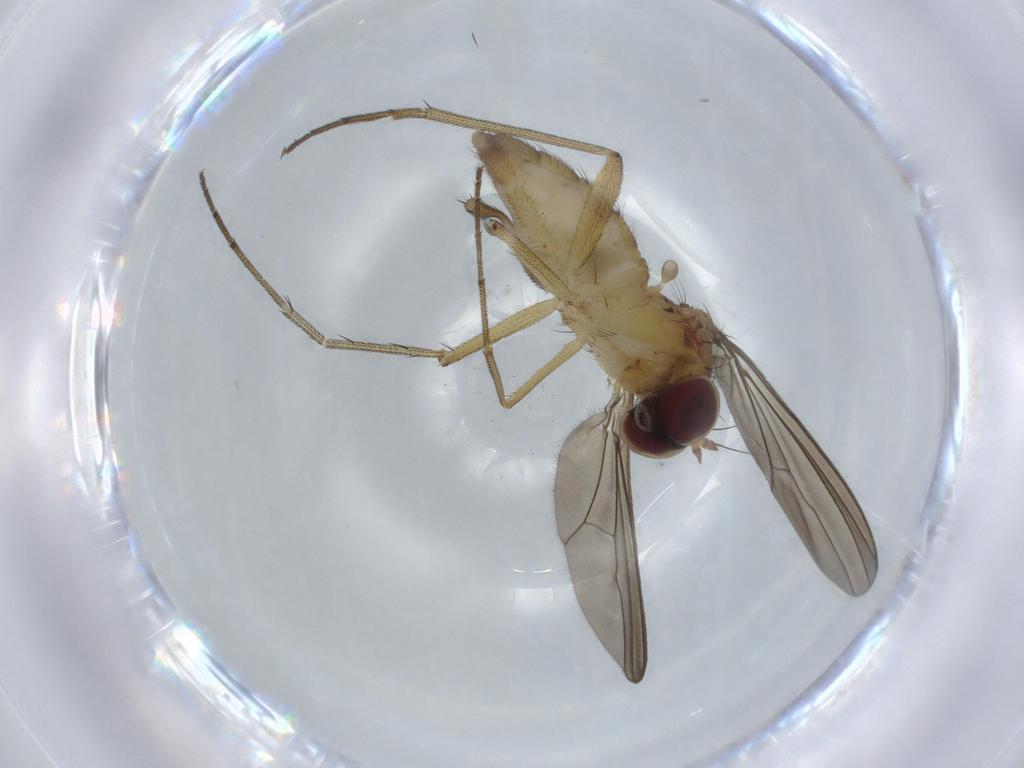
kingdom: Animalia
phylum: Arthropoda
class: Insecta
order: Diptera
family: Dolichopodidae
